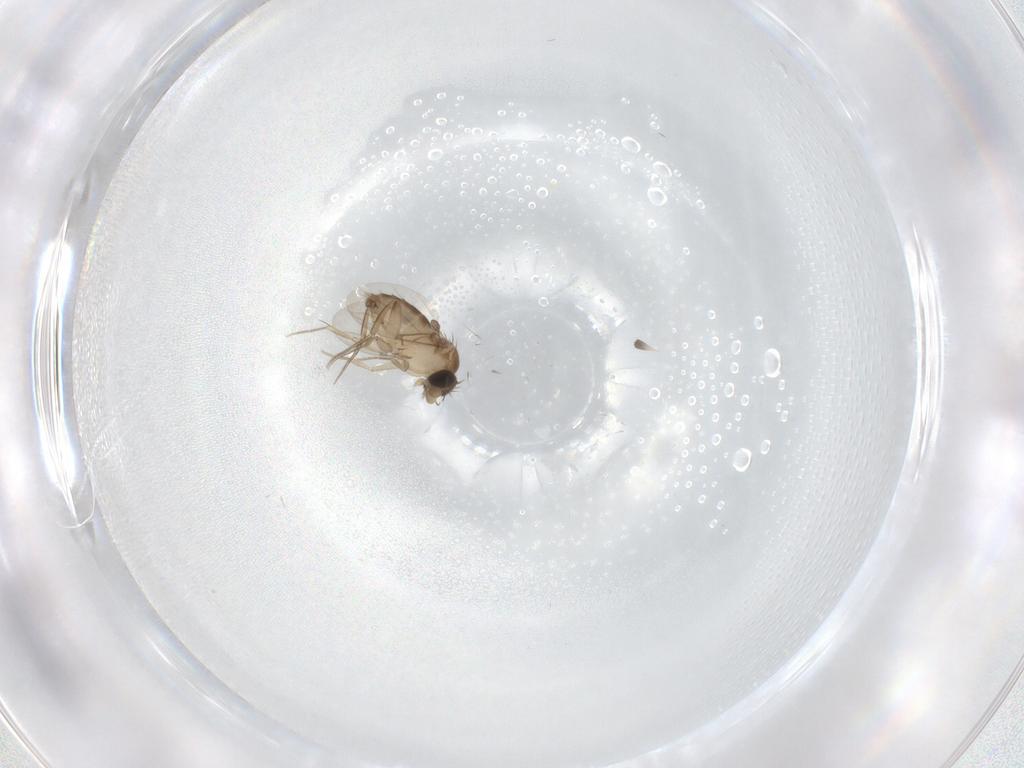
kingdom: Animalia
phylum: Arthropoda
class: Insecta
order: Diptera
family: Phoridae
